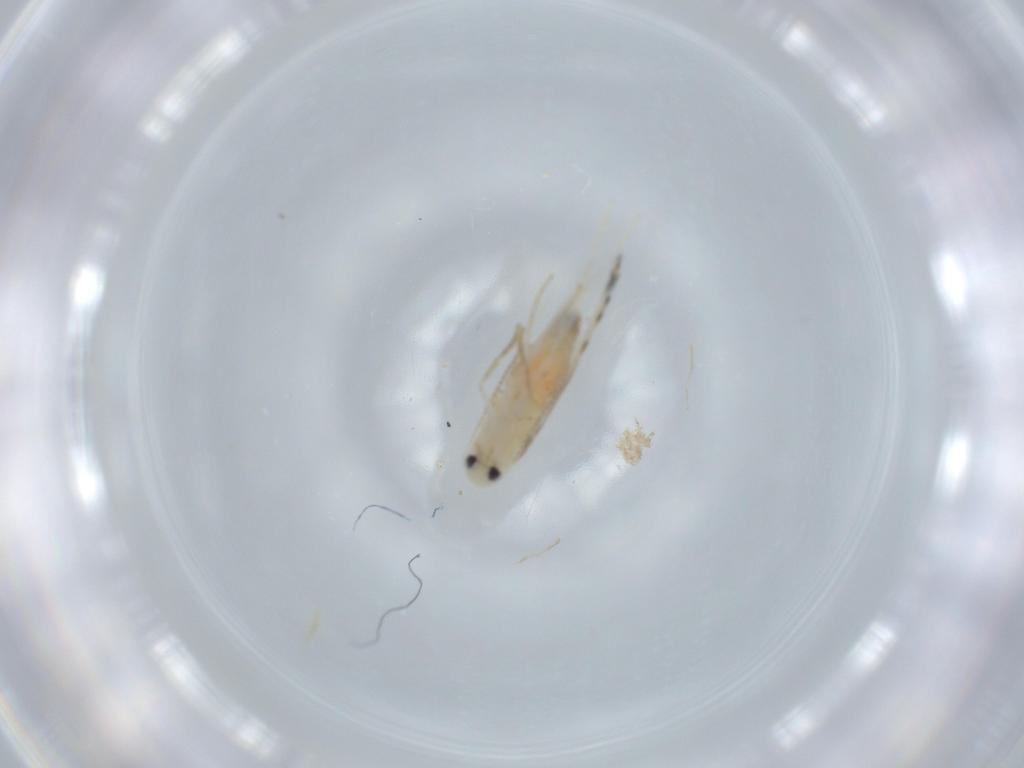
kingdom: Animalia
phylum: Arthropoda
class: Insecta
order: Lepidoptera
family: Gracillariidae
